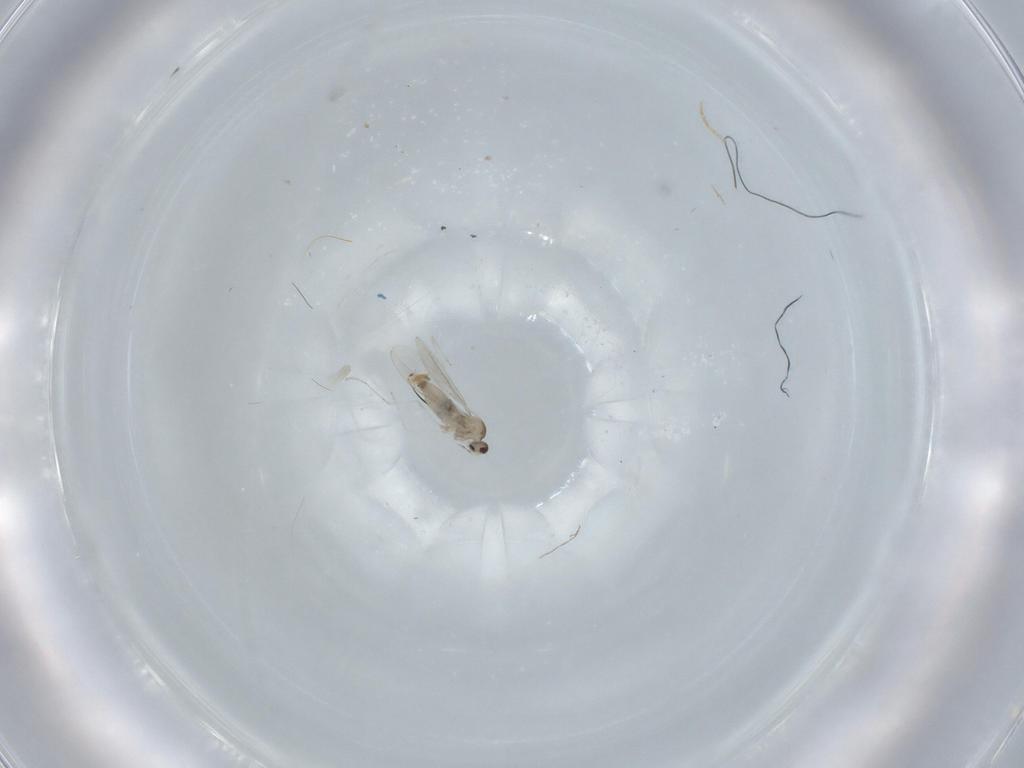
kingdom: Animalia
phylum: Arthropoda
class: Insecta
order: Diptera
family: Cecidomyiidae
